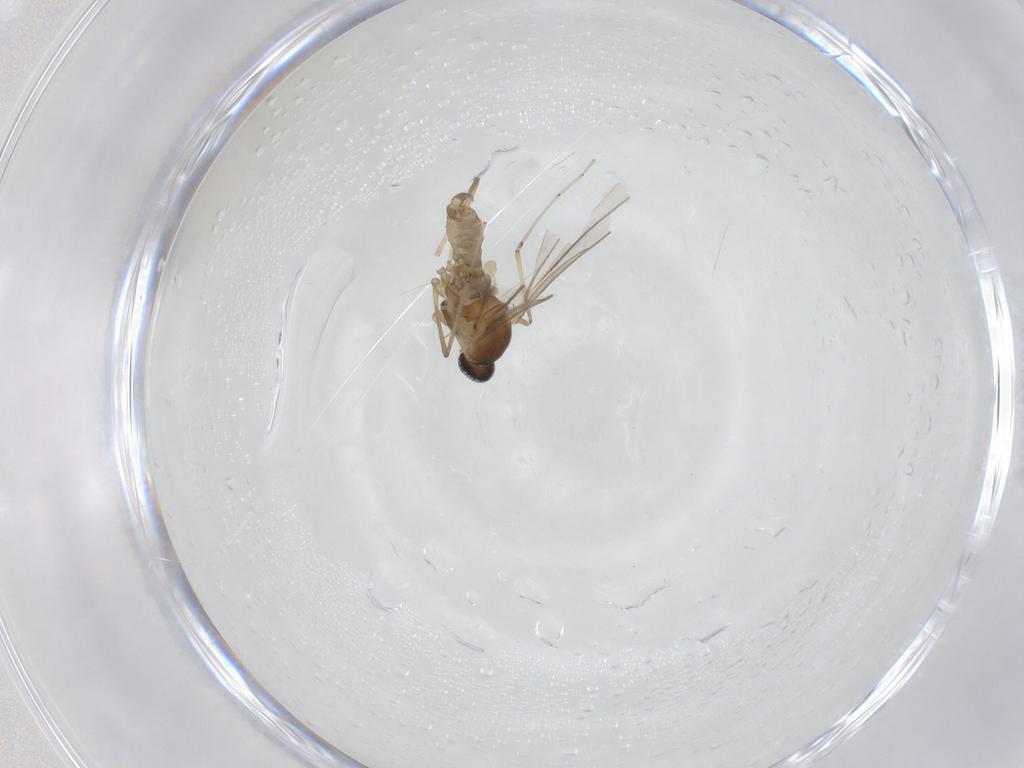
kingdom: Animalia
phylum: Arthropoda
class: Insecta
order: Diptera
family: Cecidomyiidae
